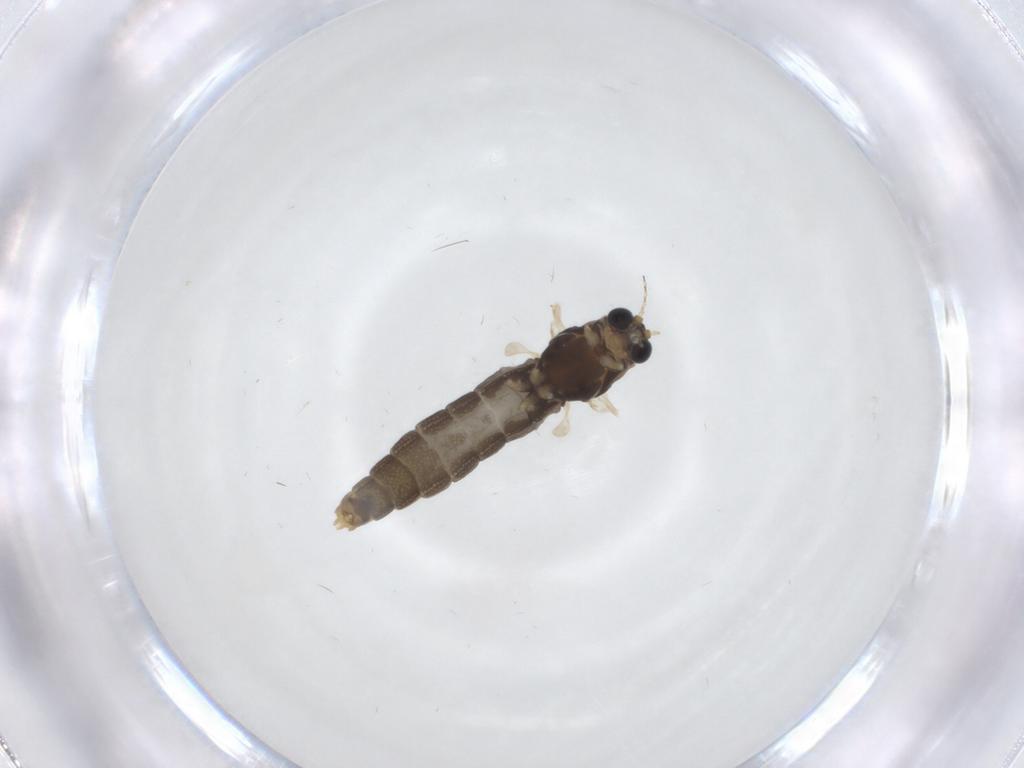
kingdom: Animalia
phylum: Arthropoda
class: Insecta
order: Diptera
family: Chironomidae
